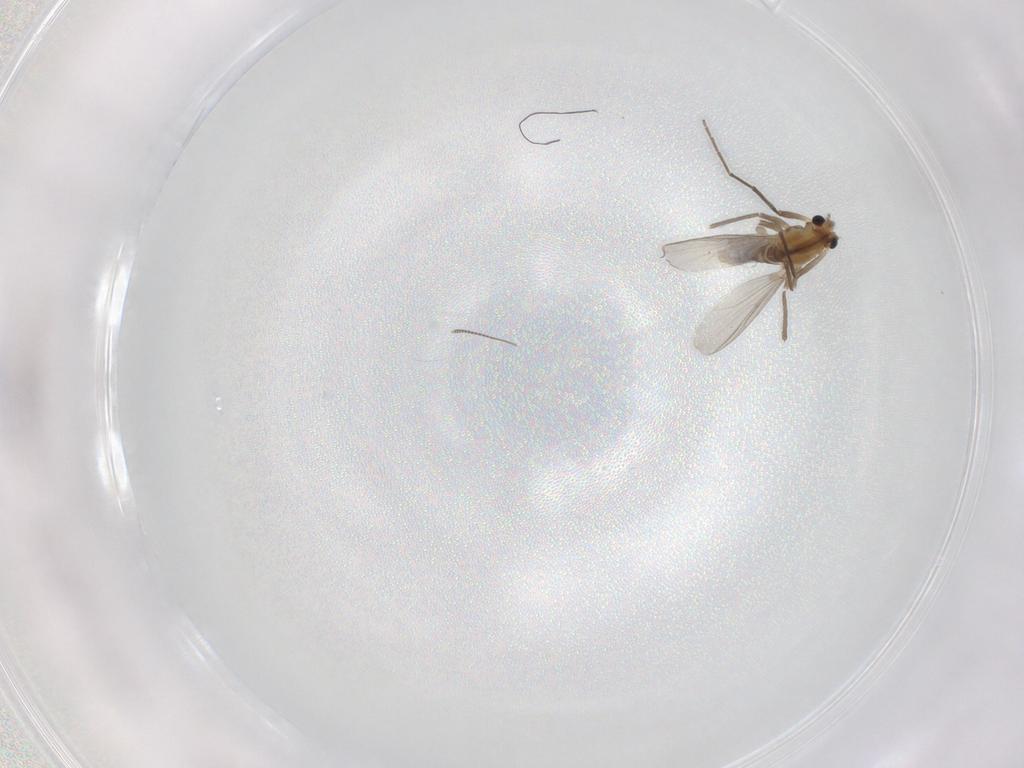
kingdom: Animalia
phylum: Arthropoda
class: Insecta
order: Diptera
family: Chironomidae
